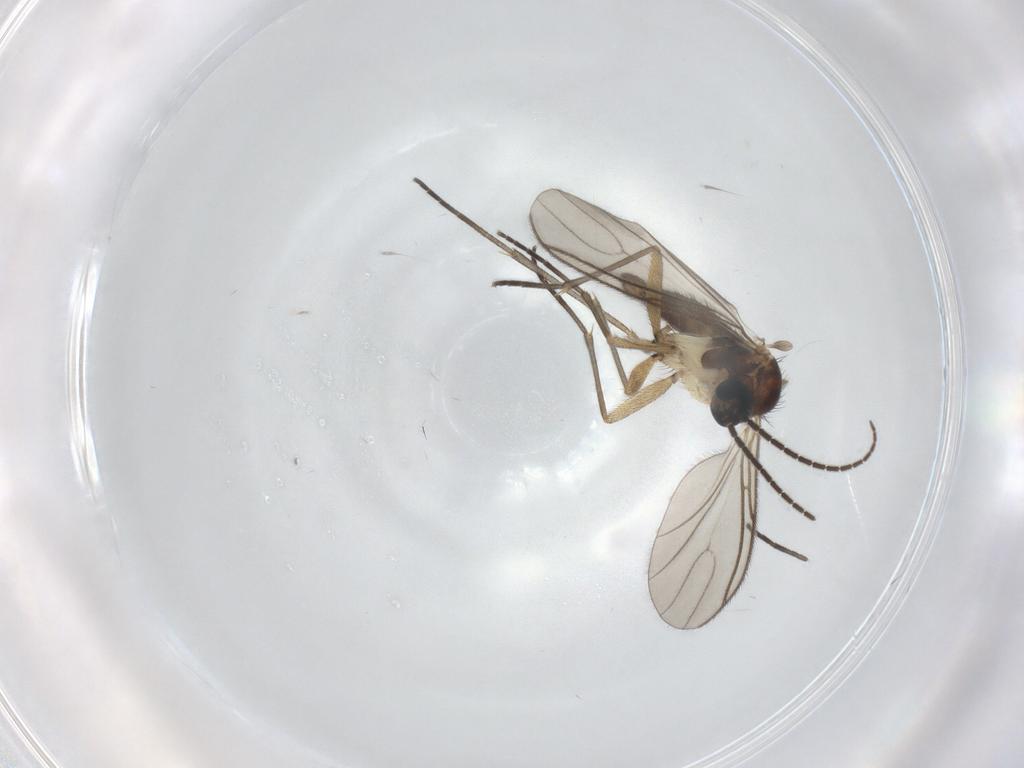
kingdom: Animalia
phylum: Arthropoda
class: Insecta
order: Diptera
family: Sciaridae
